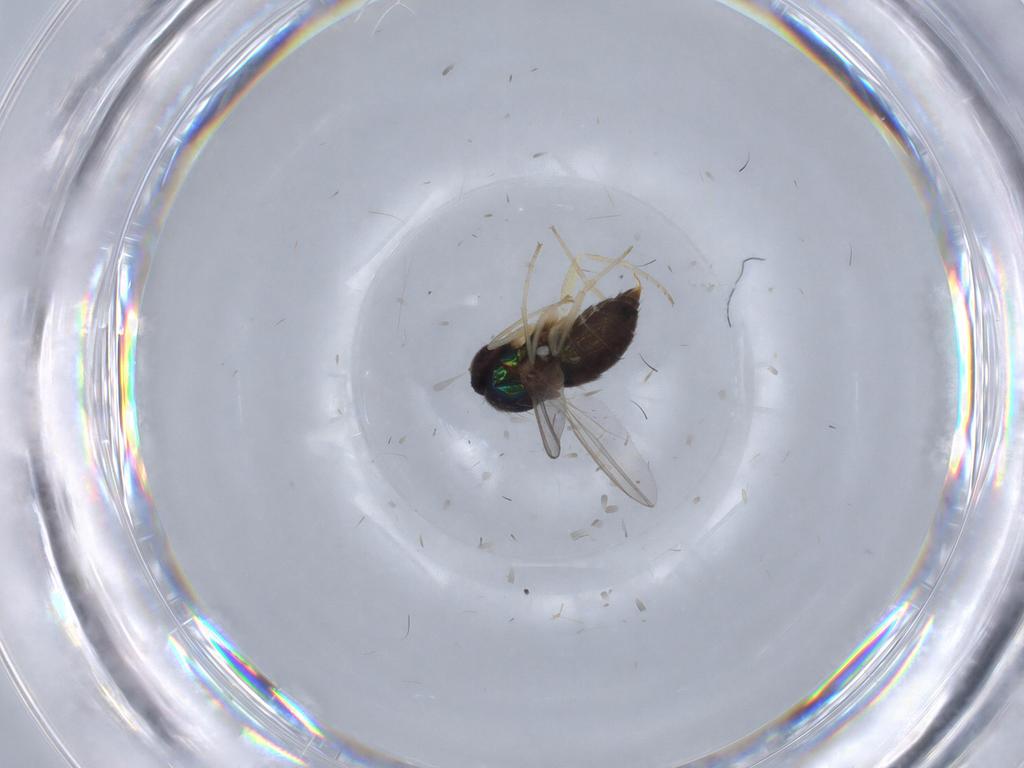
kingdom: Animalia
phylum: Arthropoda
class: Insecta
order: Diptera
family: Dolichopodidae
